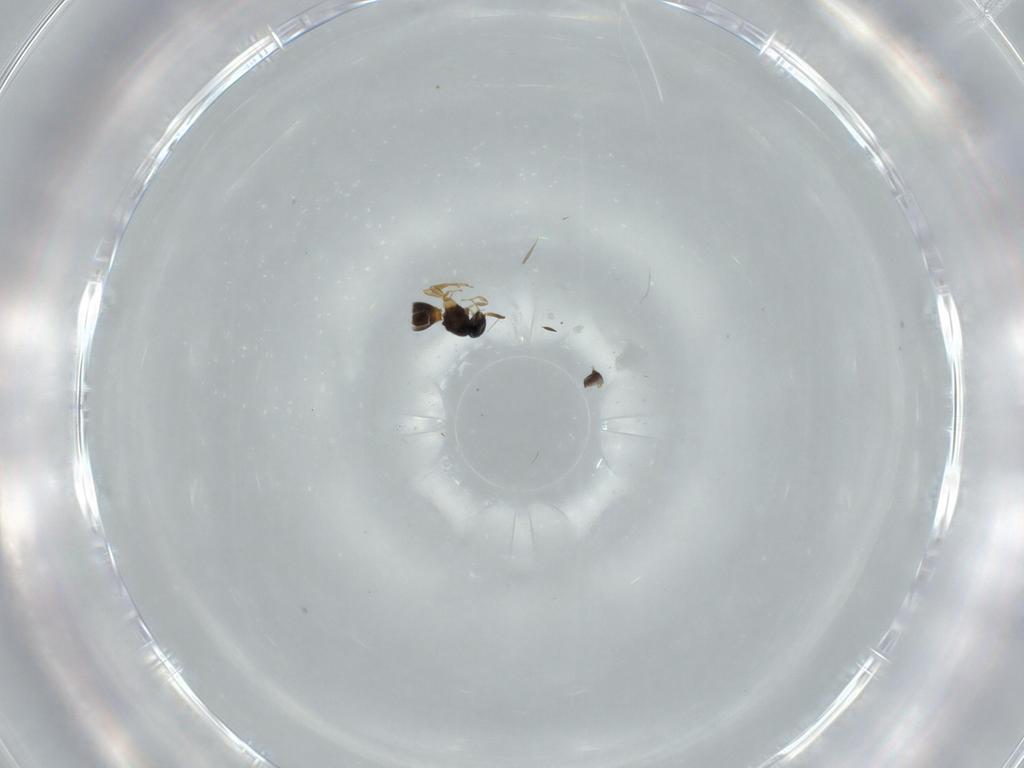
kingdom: Animalia
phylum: Arthropoda
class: Insecta
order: Hymenoptera
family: Scelionidae
